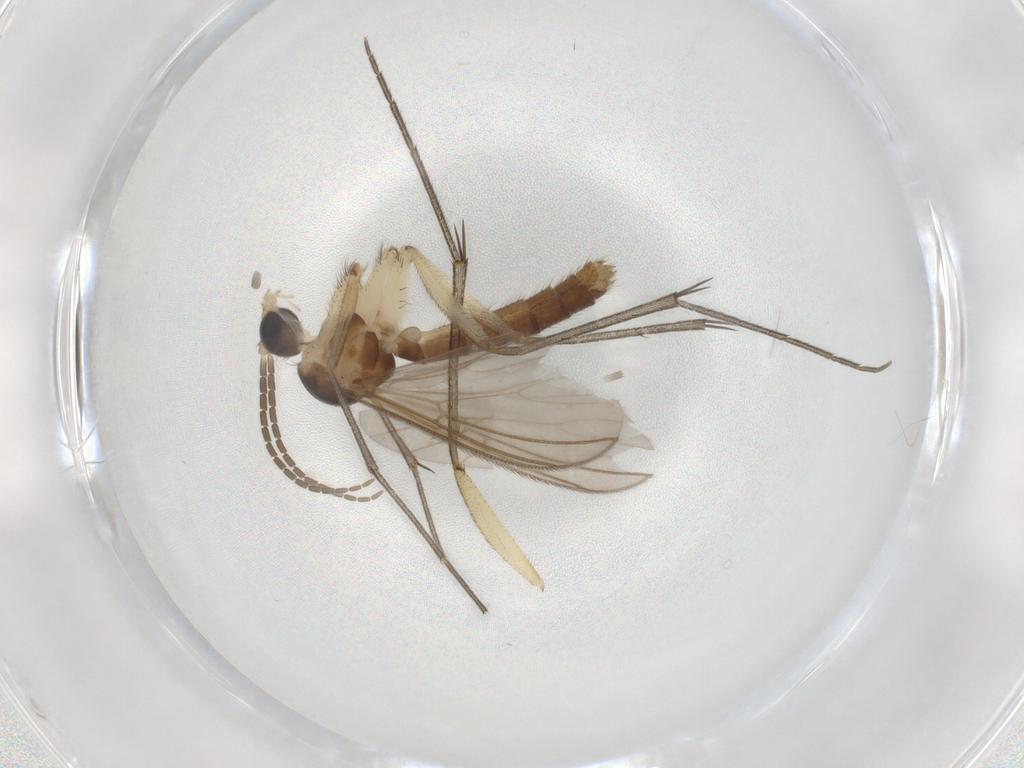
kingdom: Animalia
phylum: Arthropoda
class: Insecta
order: Diptera
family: Mycetophilidae
